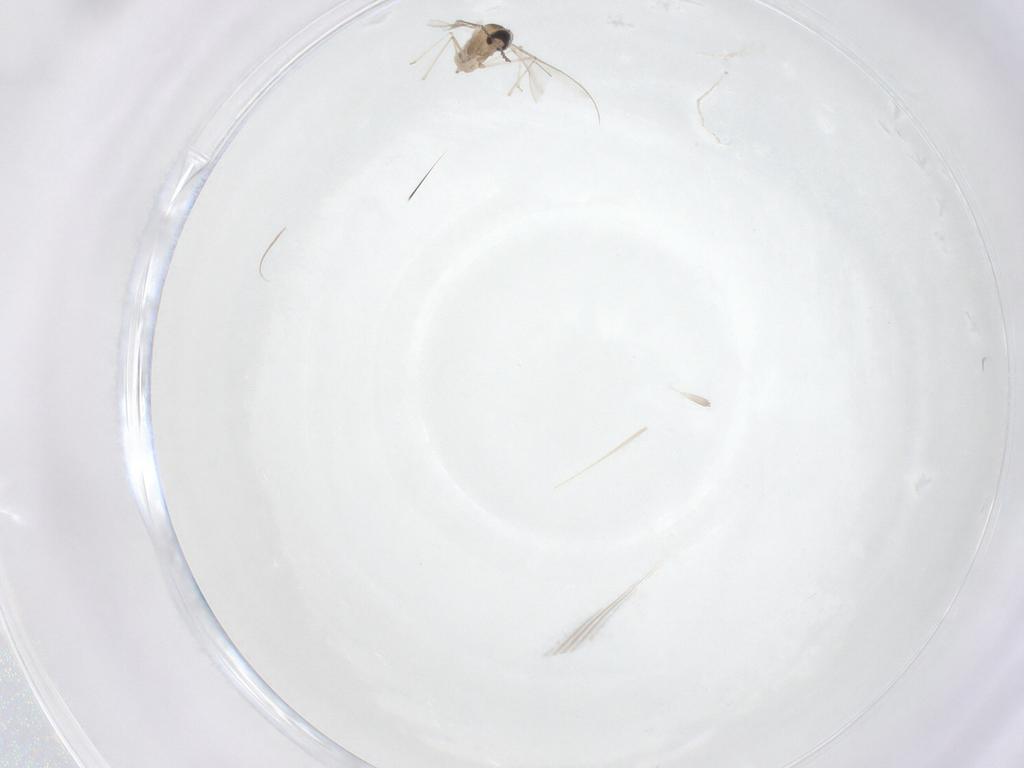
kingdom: Animalia
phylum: Arthropoda
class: Insecta
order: Diptera
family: Cecidomyiidae
